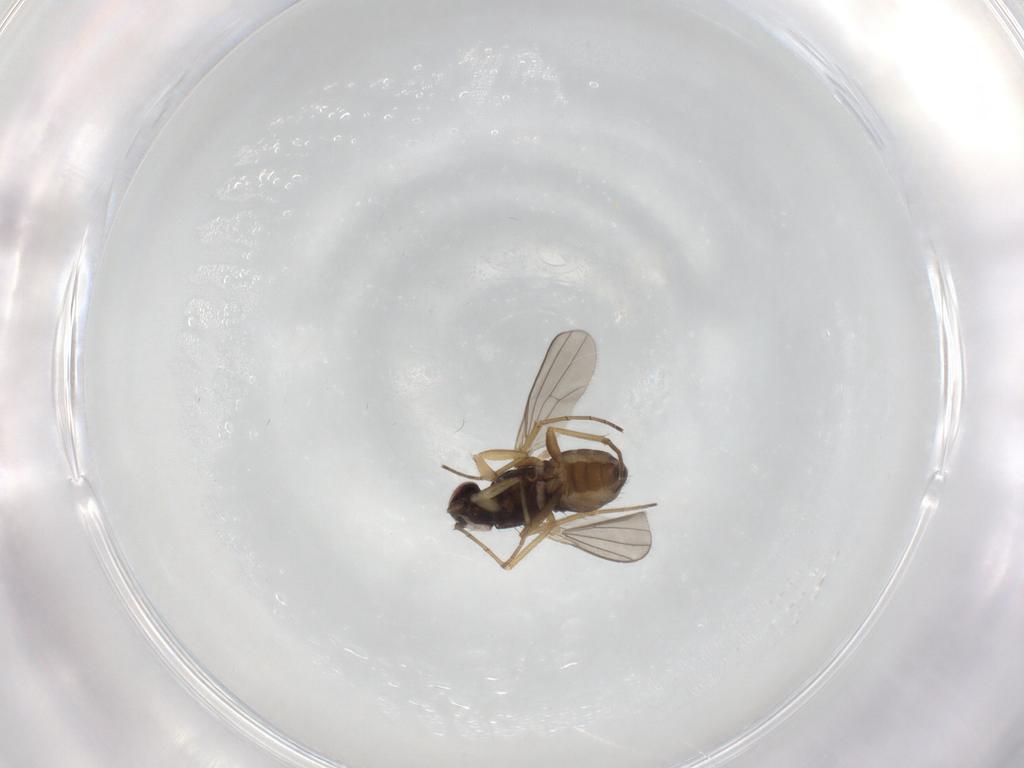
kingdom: Animalia
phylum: Arthropoda
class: Insecta
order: Diptera
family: Dolichopodidae
